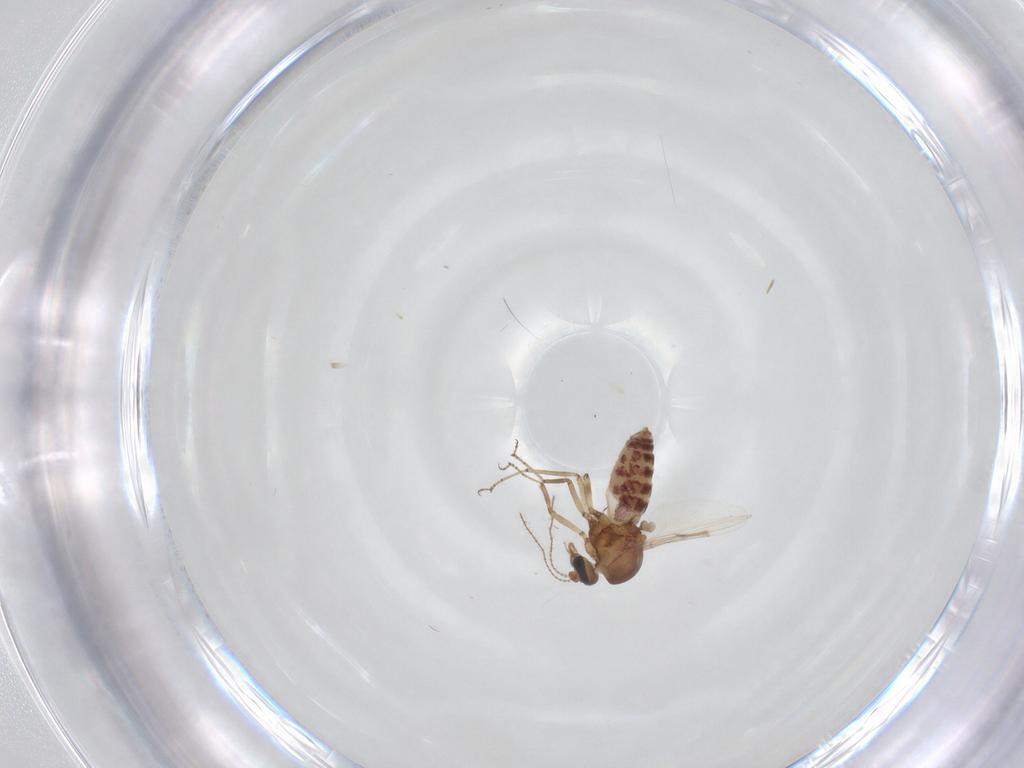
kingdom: Animalia
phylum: Arthropoda
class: Insecta
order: Diptera
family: Ceratopogonidae
